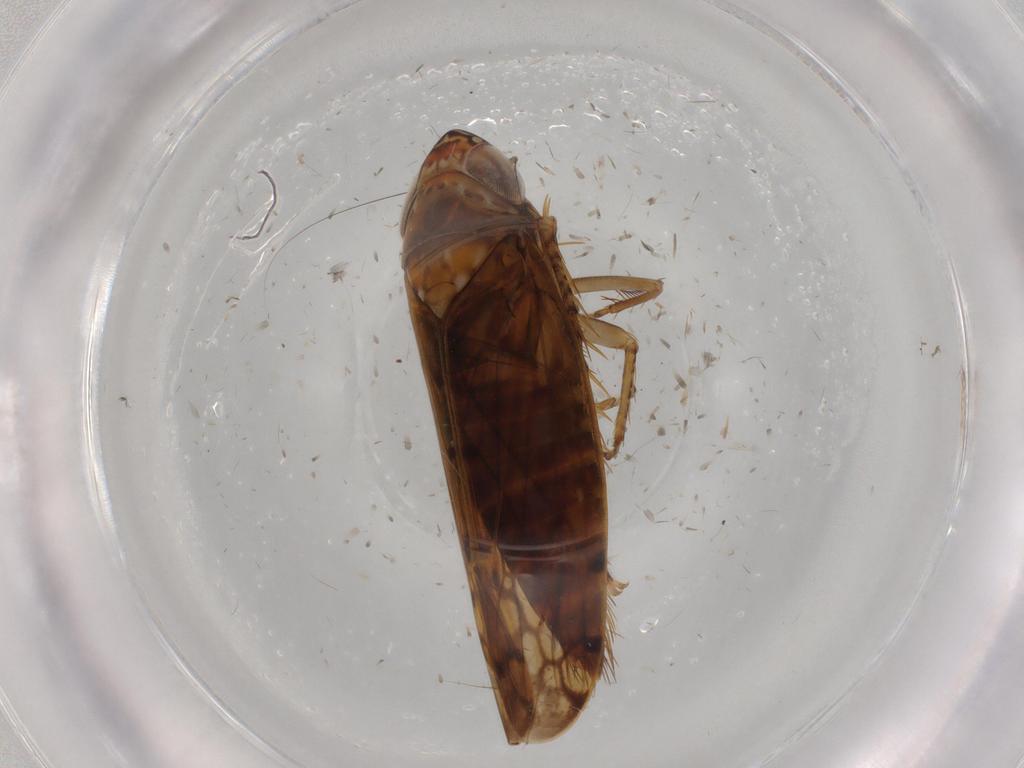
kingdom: Animalia
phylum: Arthropoda
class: Insecta
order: Hemiptera
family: Cicadellidae
